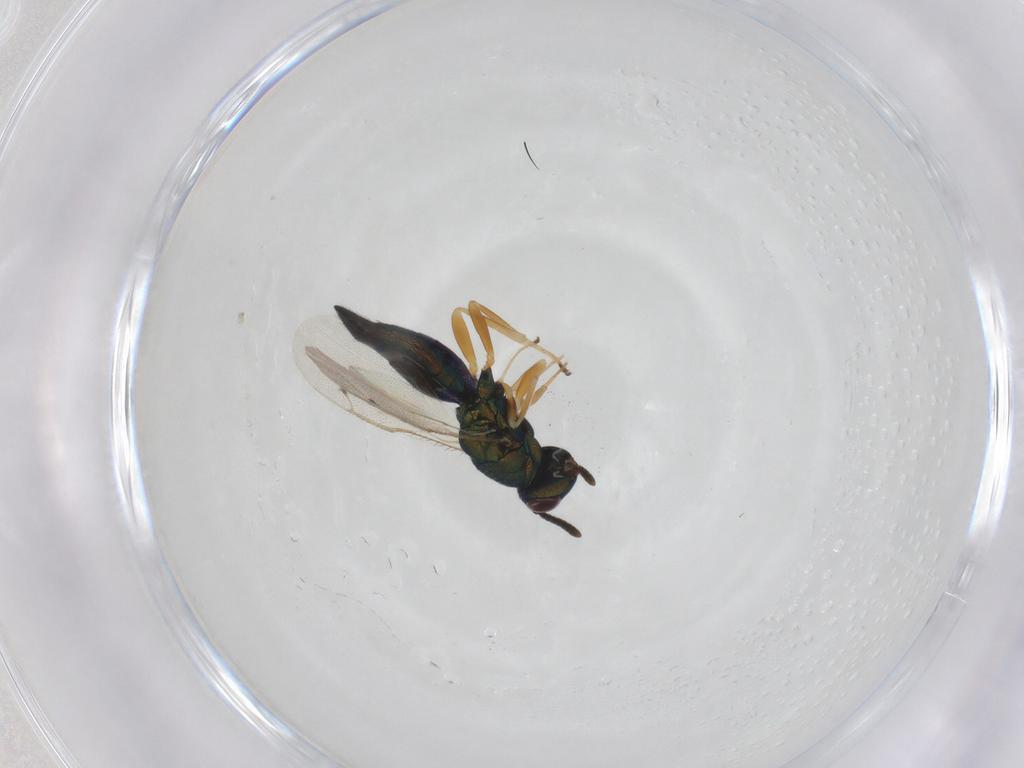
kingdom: Animalia
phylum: Arthropoda
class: Insecta
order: Hymenoptera
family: Pteromalidae
